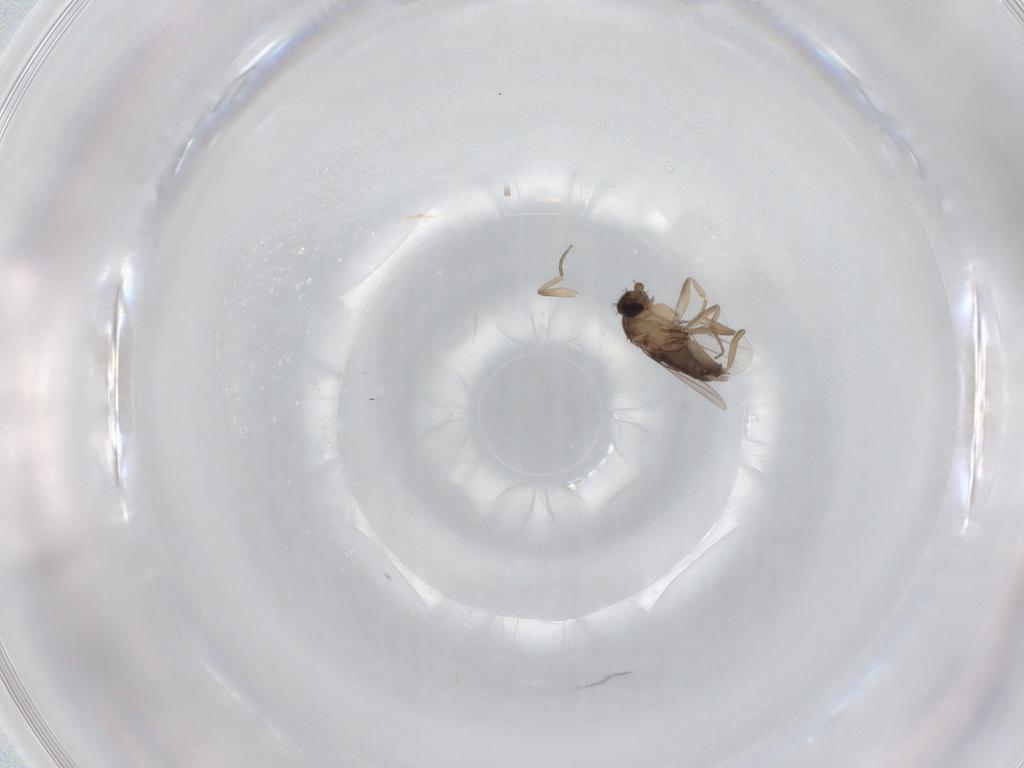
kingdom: Animalia
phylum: Arthropoda
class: Insecta
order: Diptera
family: Phoridae
